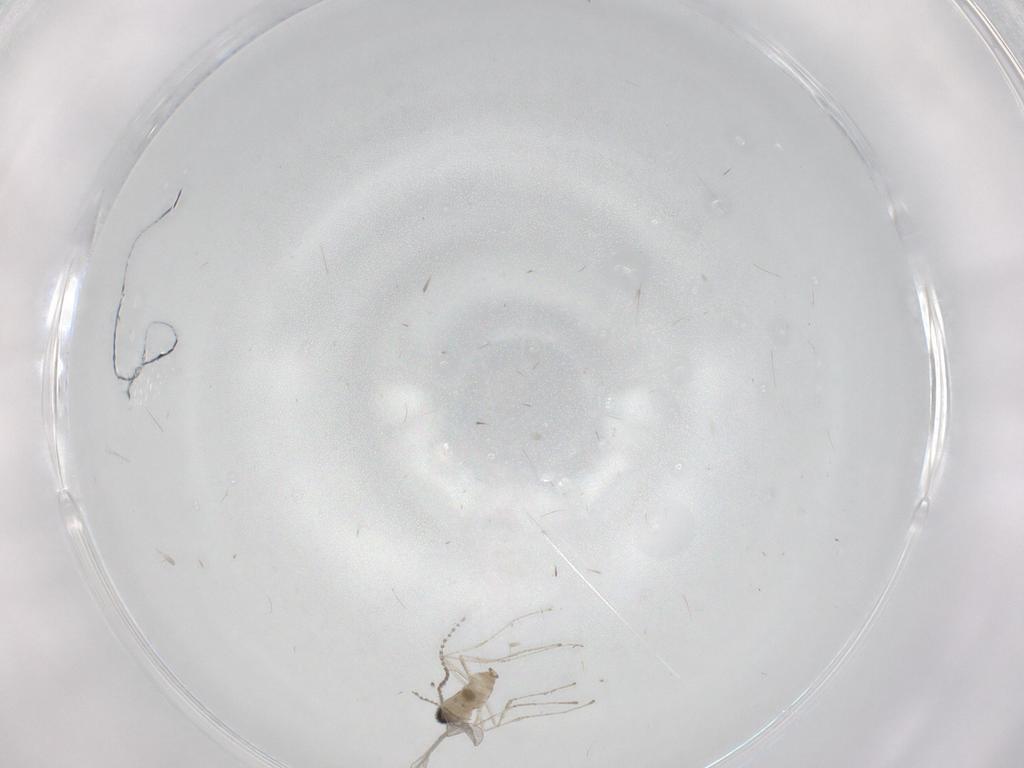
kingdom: Animalia
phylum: Arthropoda
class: Insecta
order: Diptera
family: Cecidomyiidae
